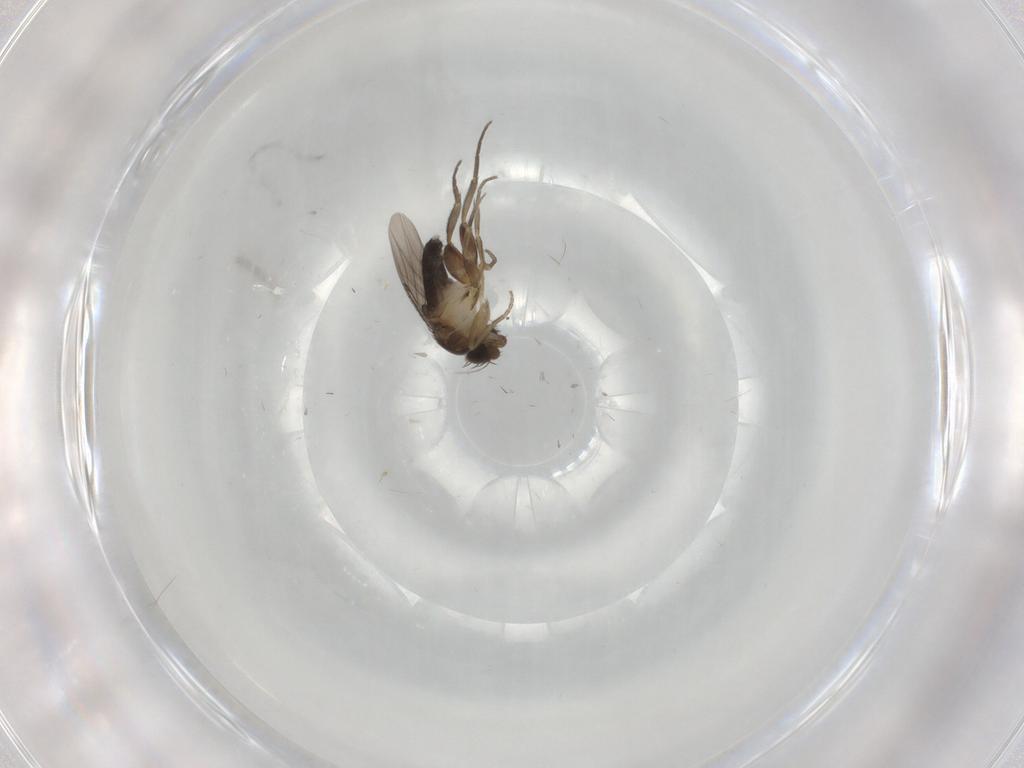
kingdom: Animalia
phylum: Arthropoda
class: Insecta
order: Diptera
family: Phoridae
